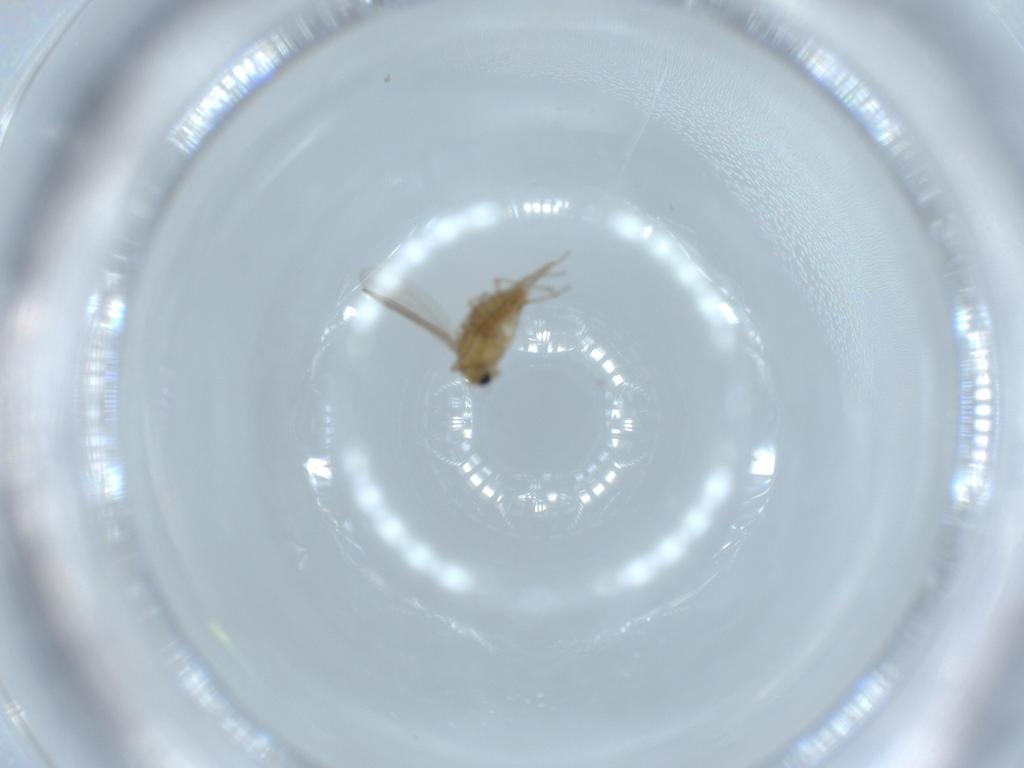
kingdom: Animalia
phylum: Arthropoda
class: Insecta
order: Diptera
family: Chironomidae
